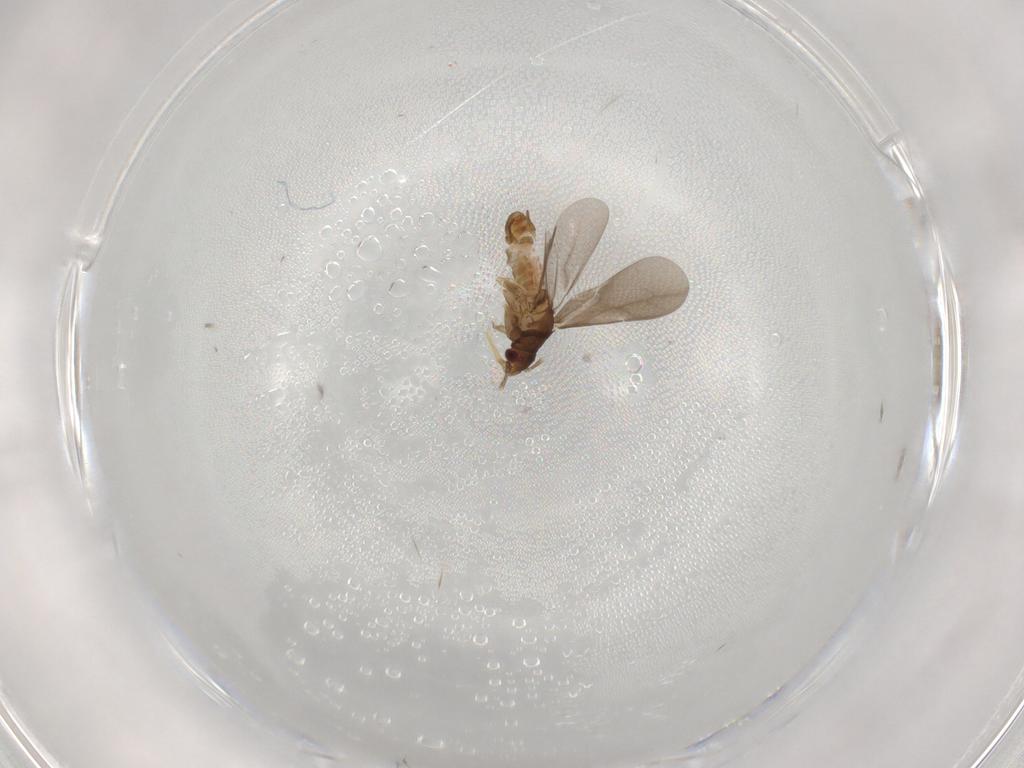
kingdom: Animalia
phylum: Arthropoda
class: Insecta
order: Hemiptera
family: Ceratocombidae
